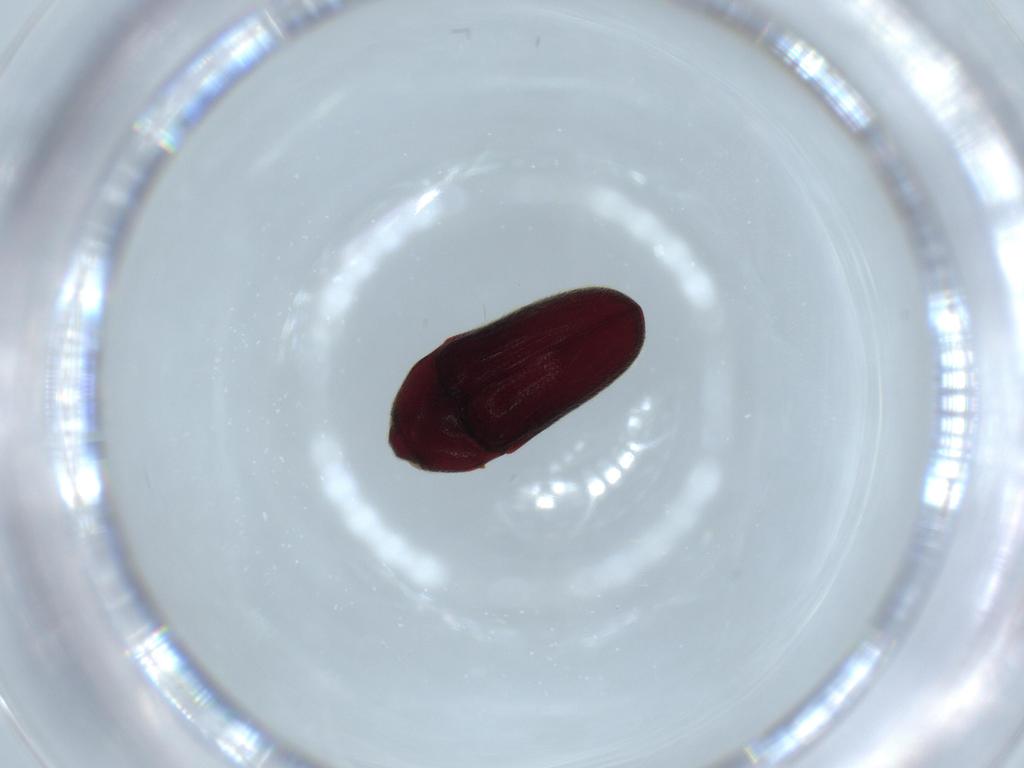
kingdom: Animalia
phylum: Arthropoda
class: Insecta
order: Coleoptera
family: Throscidae
